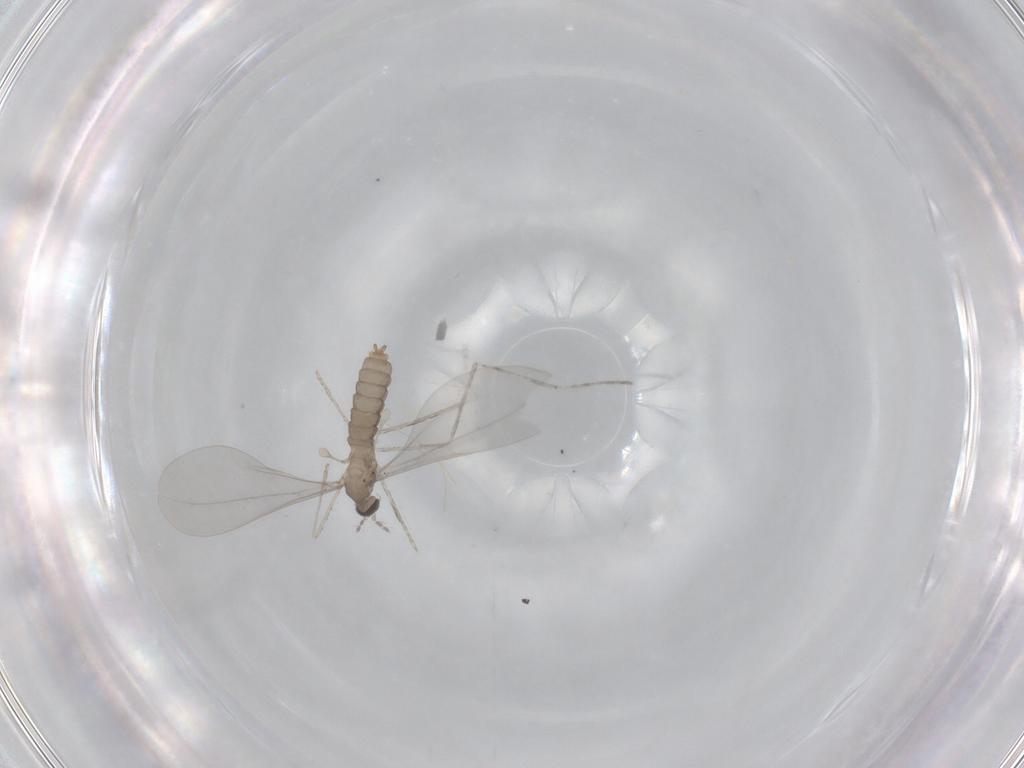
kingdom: Animalia
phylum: Arthropoda
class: Insecta
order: Diptera
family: Cecidomyiidae
